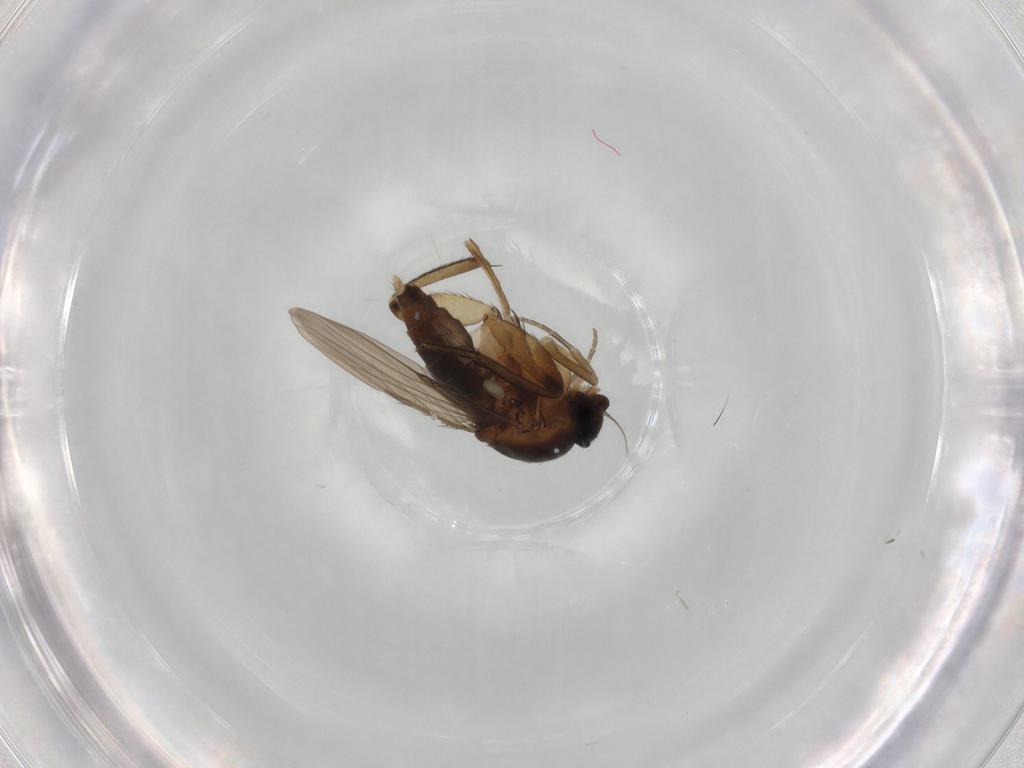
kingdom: Animalia
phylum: Arthropoda
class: Insecta
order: Diptera
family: Phoridae
